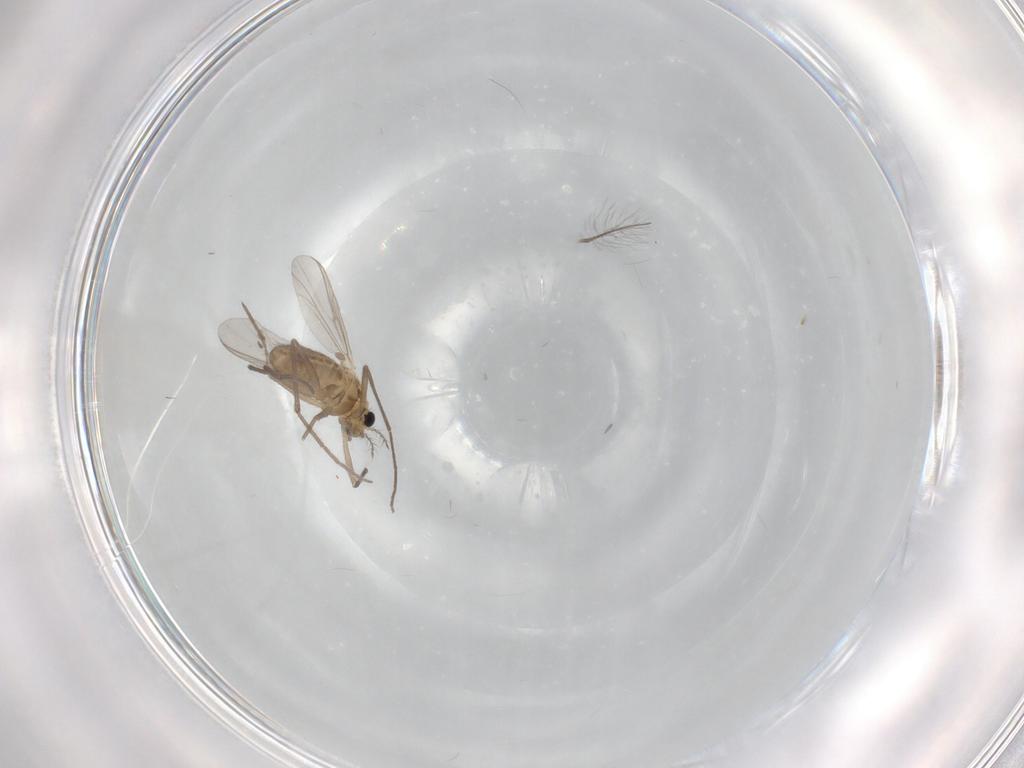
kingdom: Animalia
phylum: Arthropoda
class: Insecta
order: Diptera
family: Chironomidae
